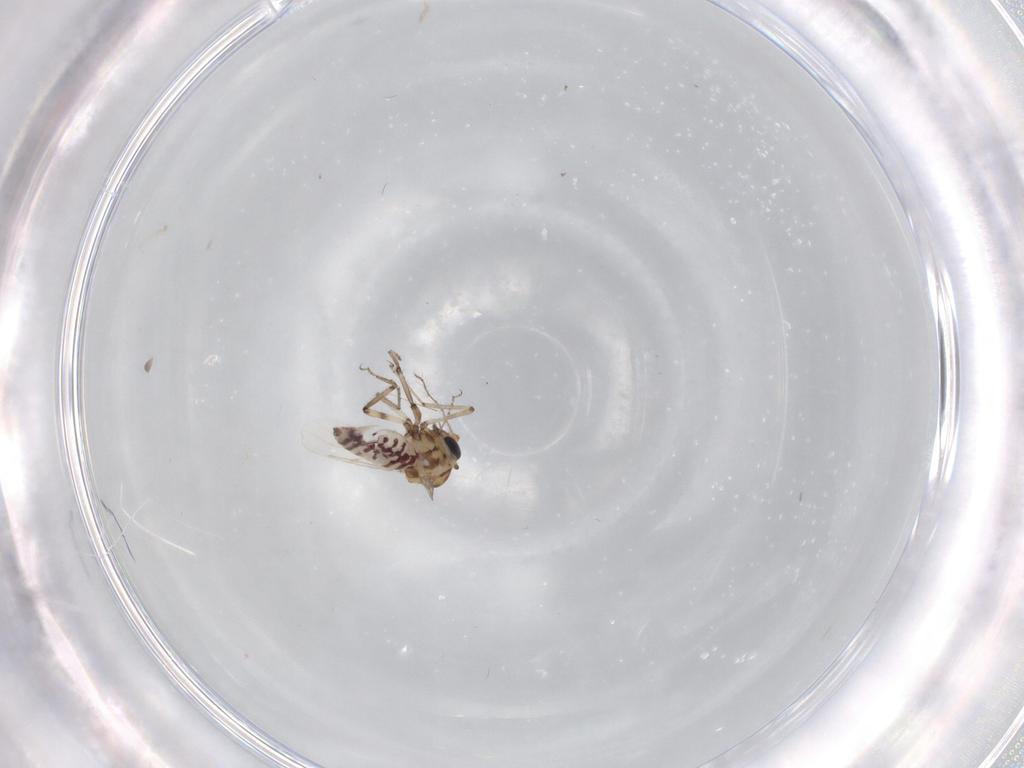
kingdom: Animalia
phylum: Arthropoda
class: Insecta
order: Diptera
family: Ceratopogonidae
